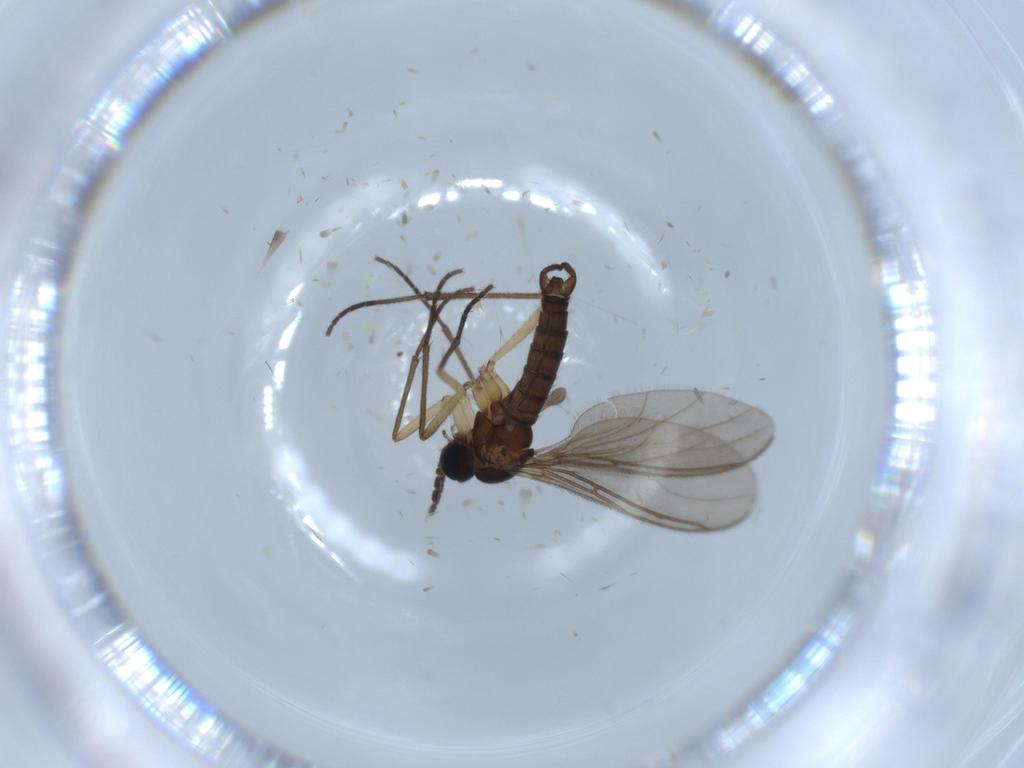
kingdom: Animalia
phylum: Arthropoda
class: Insecta
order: Diptera
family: Sciaridae
